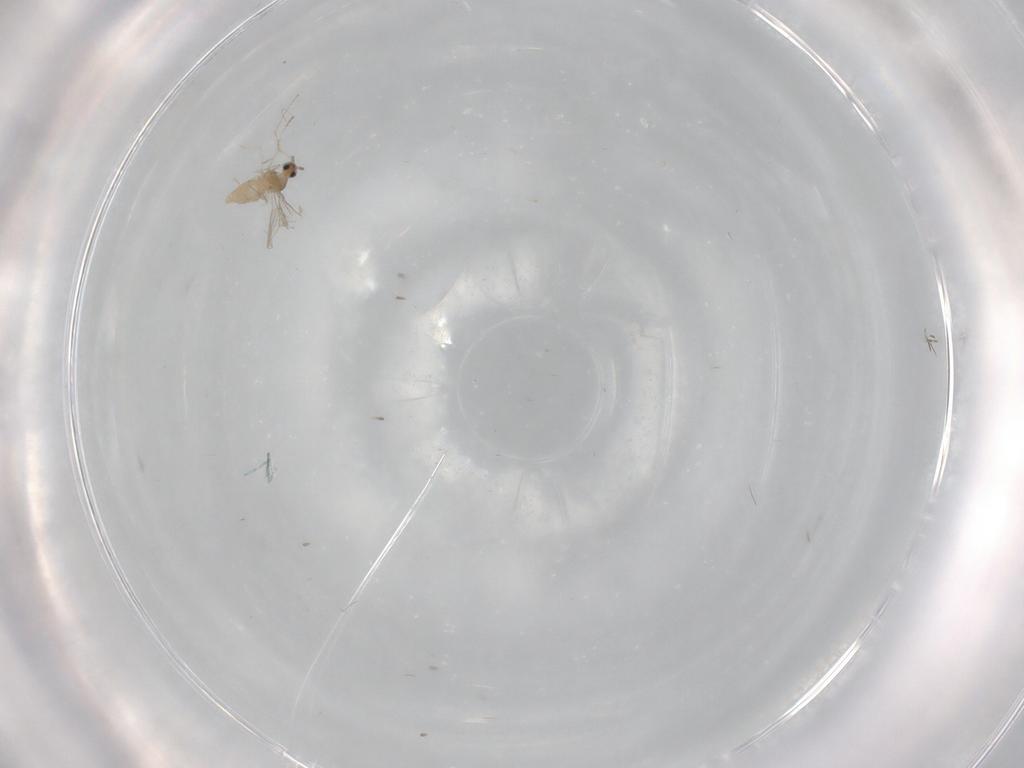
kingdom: Animalia
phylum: Arthropoda
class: Insecta
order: Diptera
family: Cecidomyiidae
